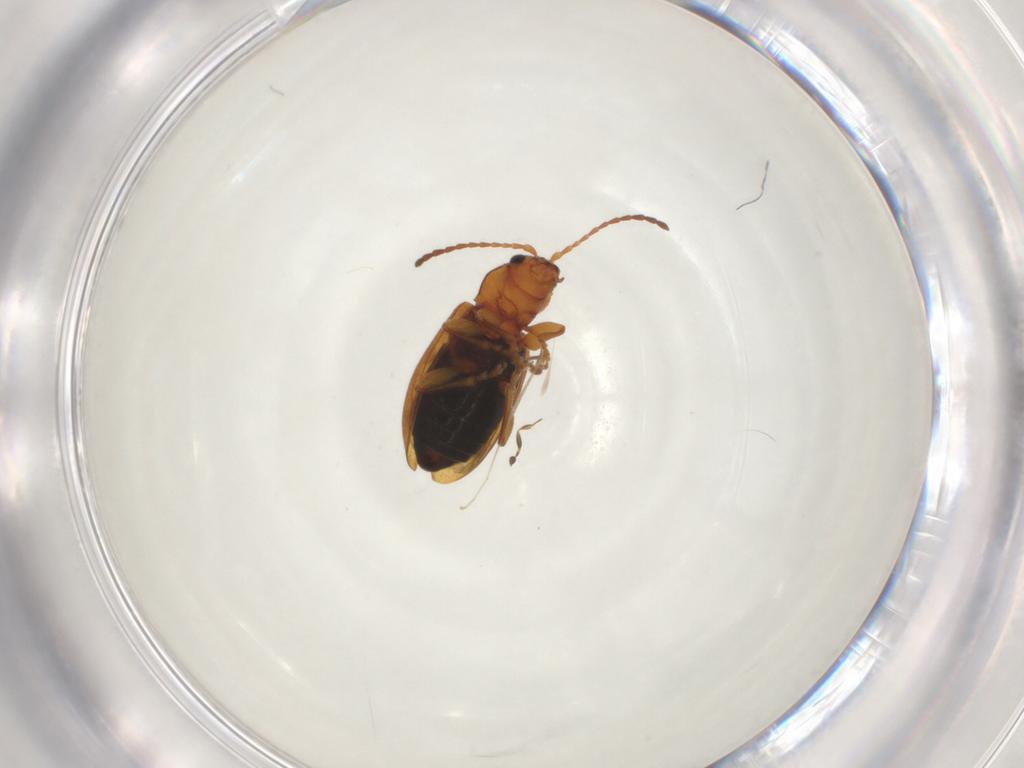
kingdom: Animalia
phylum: Arthropoda
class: Insecta
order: Coleoptera
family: Chrysomelidae
